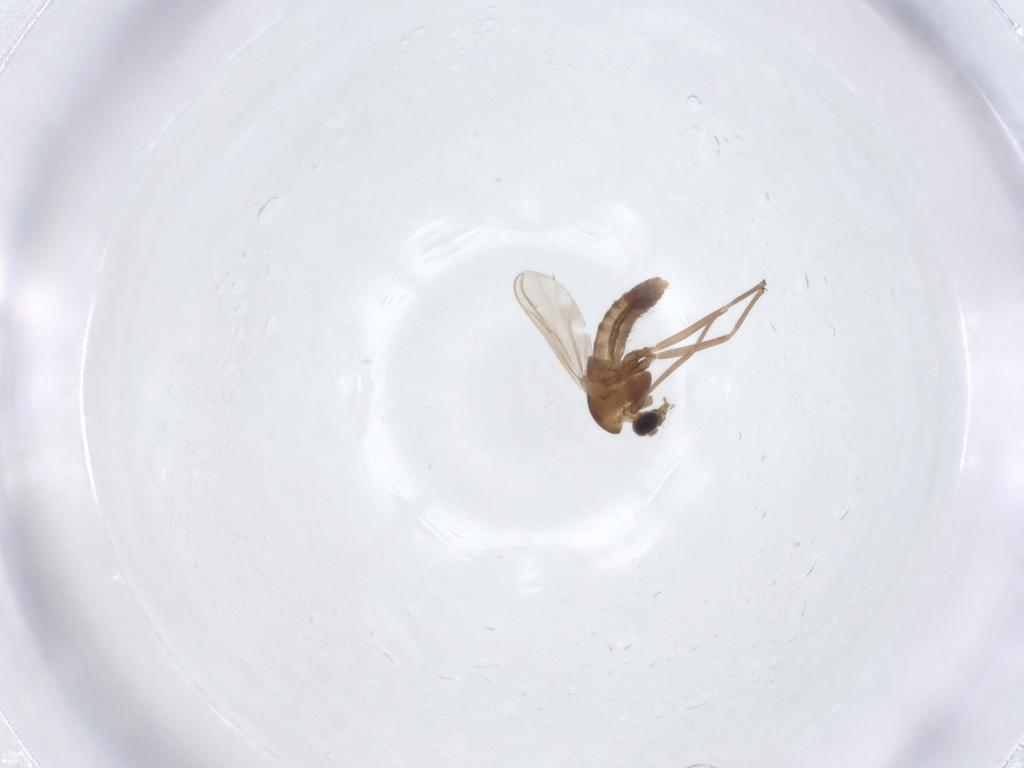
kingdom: Animalia
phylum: Arthropoda
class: Insecta
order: Diptera
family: Chironomidae
